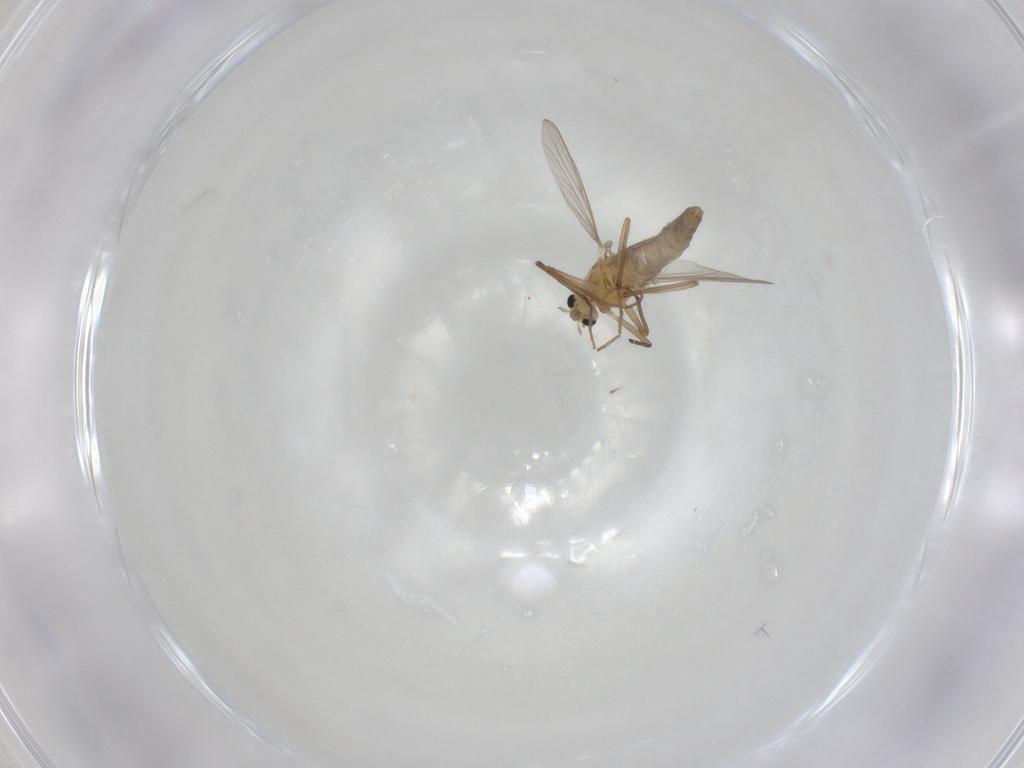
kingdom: Animalia
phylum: Arthropoda
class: Insecta
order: Diptera
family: Chironomidae
